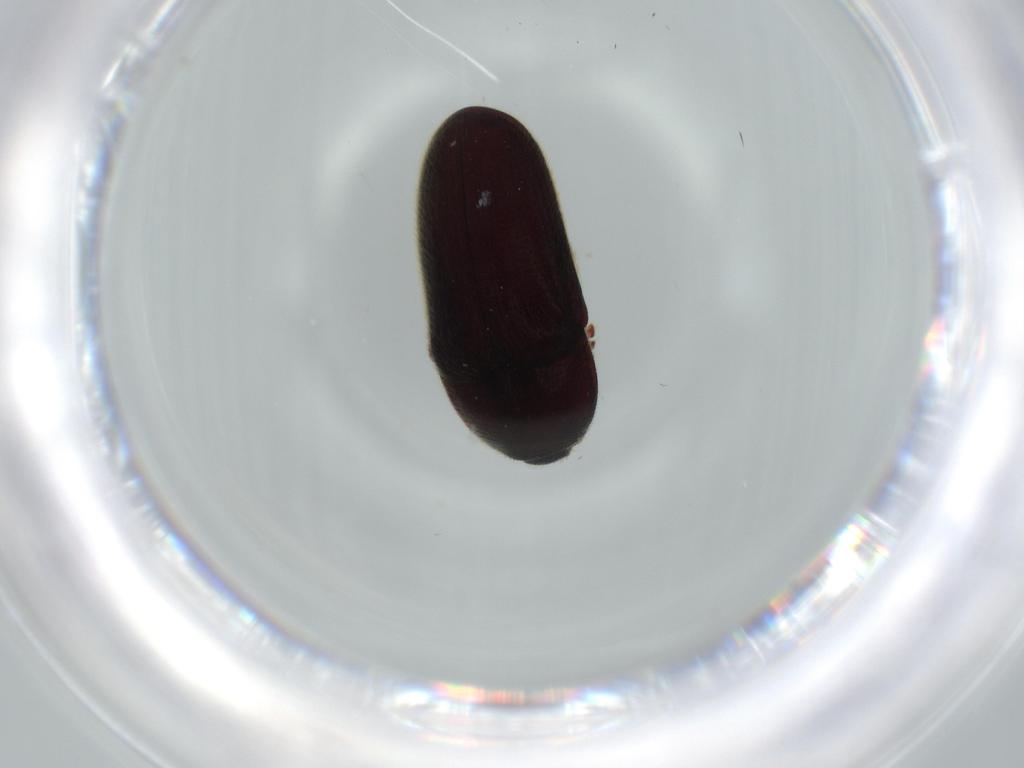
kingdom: Animalia
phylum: Arthropoda
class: Insecta
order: Coleoptera
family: Throscidae
